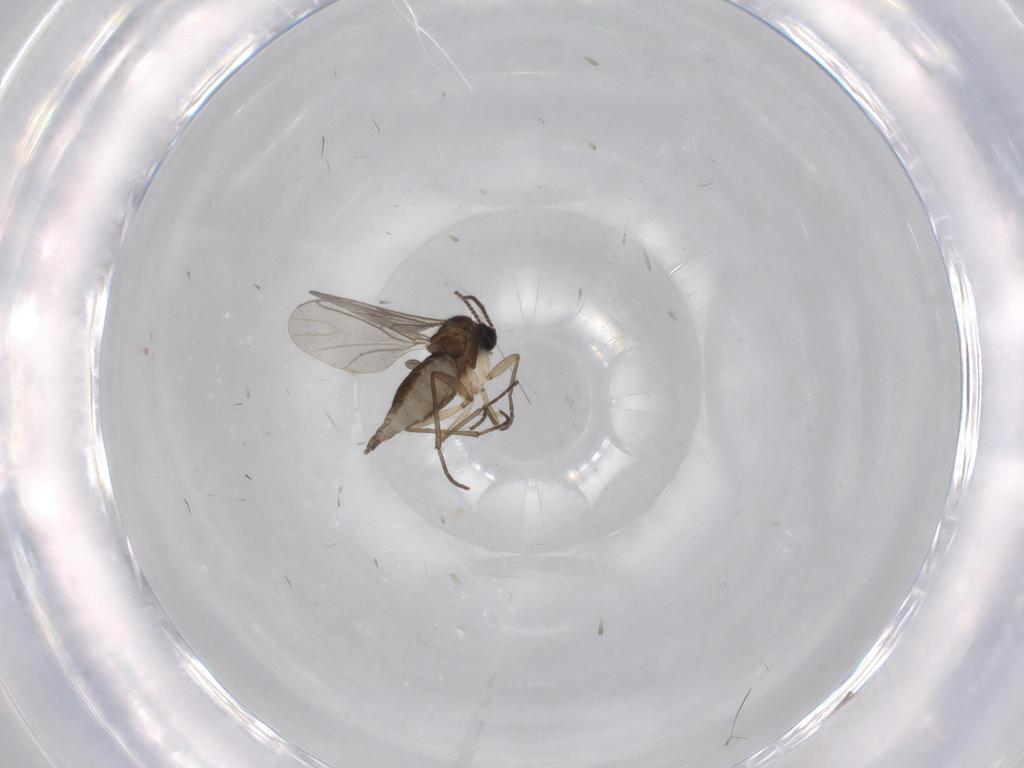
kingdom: Animalia
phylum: Arthropoda
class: Insecta
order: Diptera
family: Sciaridae
